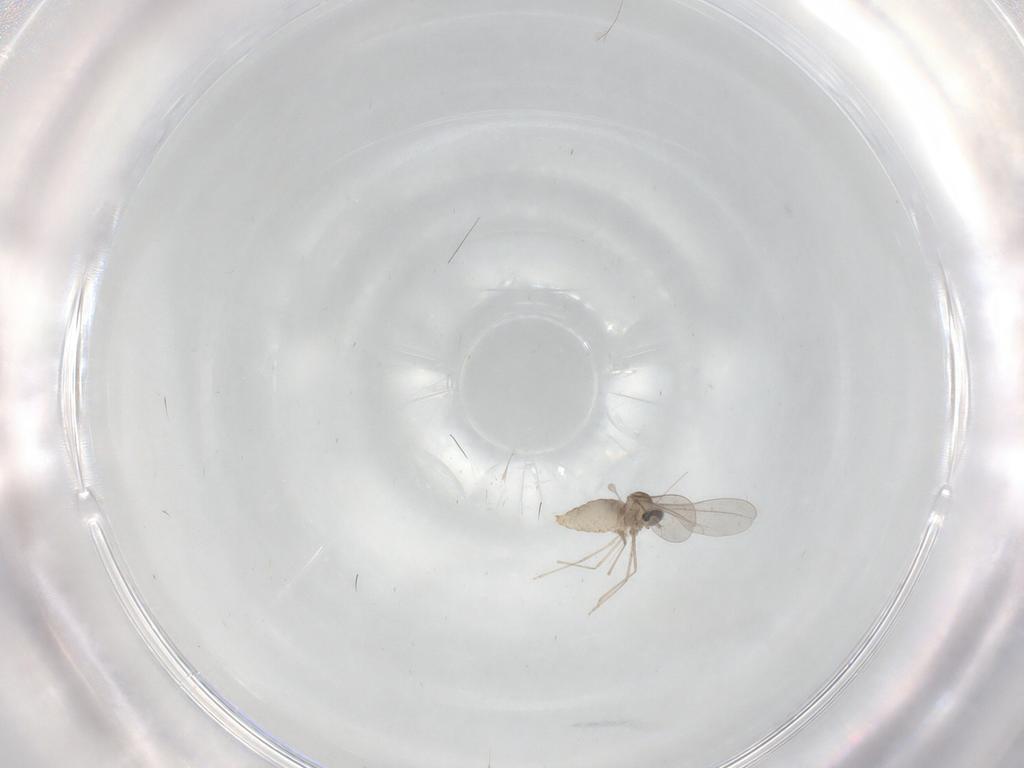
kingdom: Animalia
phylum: Arthropoda
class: Insecta
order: Diptera
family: Cecidomyiidae
